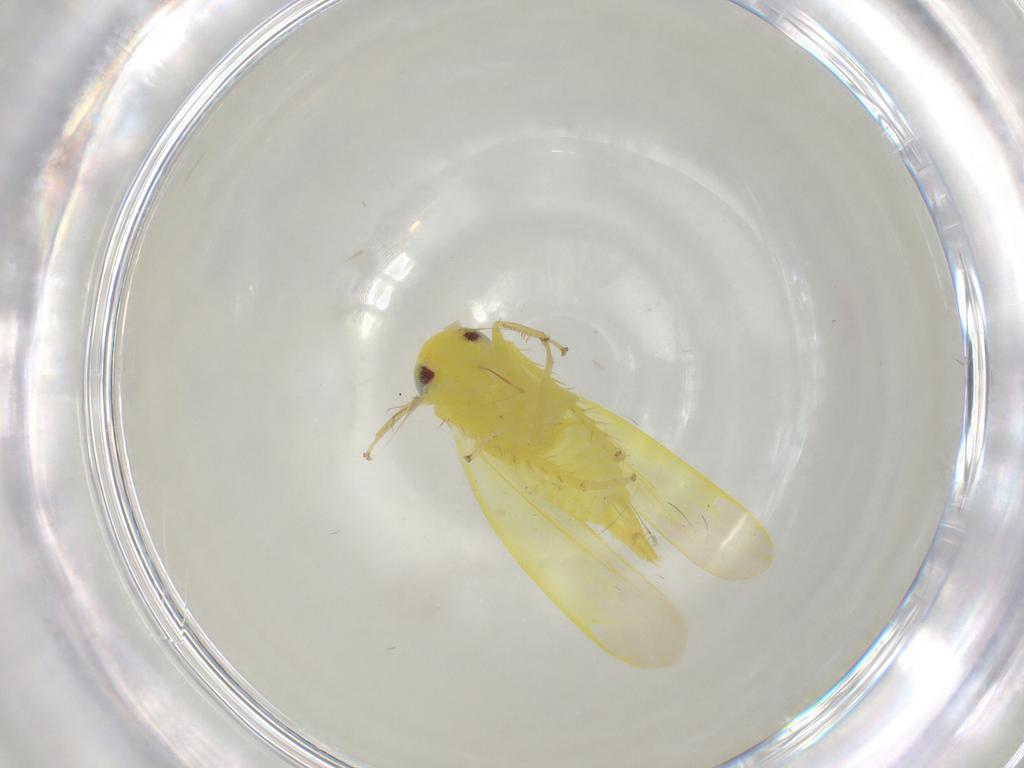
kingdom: Animalia
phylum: Arthropoda
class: Insecta
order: Hemiptera
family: Cicadellidae
